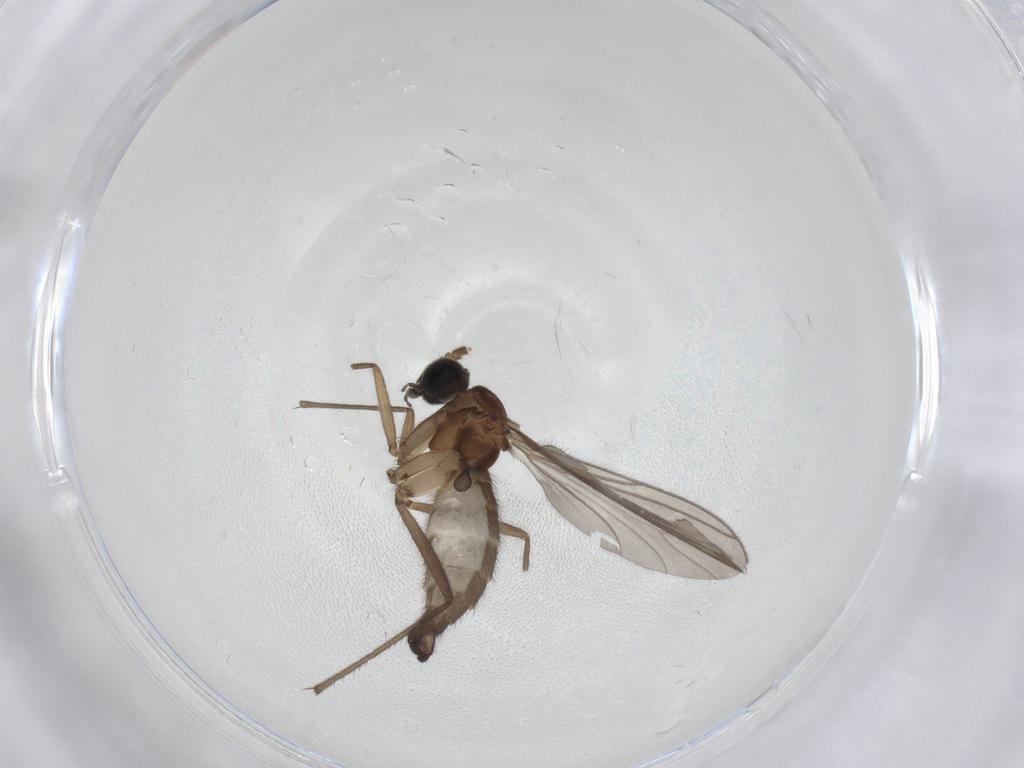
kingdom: Animalia
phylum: Arthropoda
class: Insecta
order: Diptera
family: Sciaridae
